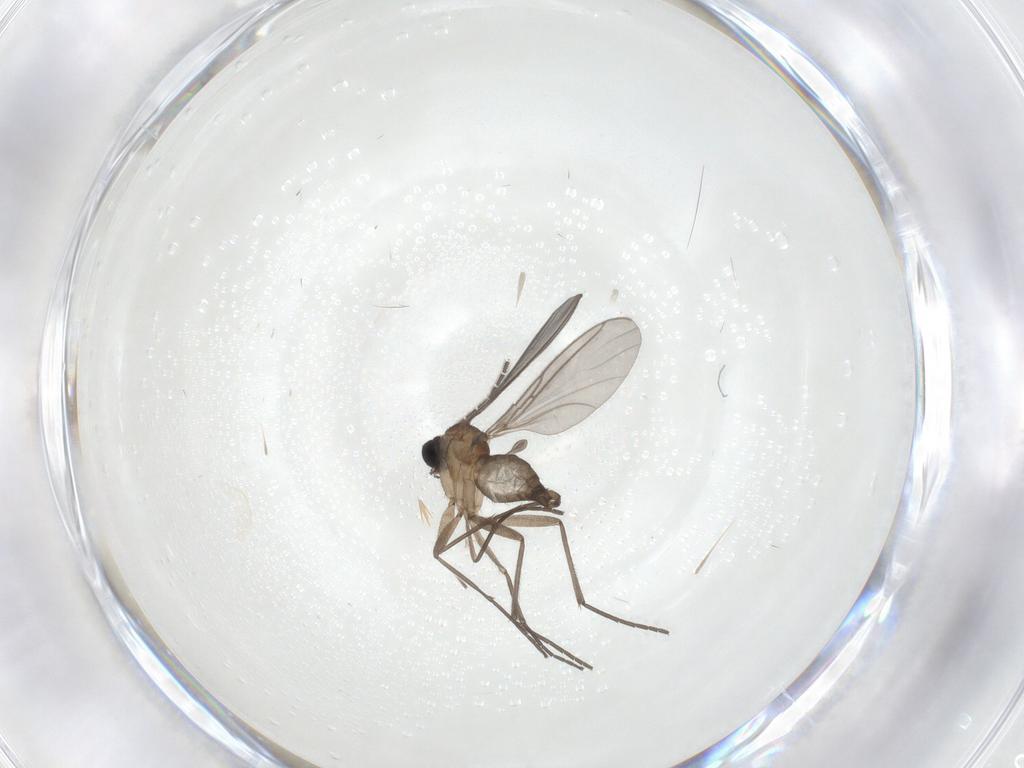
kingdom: Animalia
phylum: Arthropoda
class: Insecta
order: Diptera
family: Sciaridae
